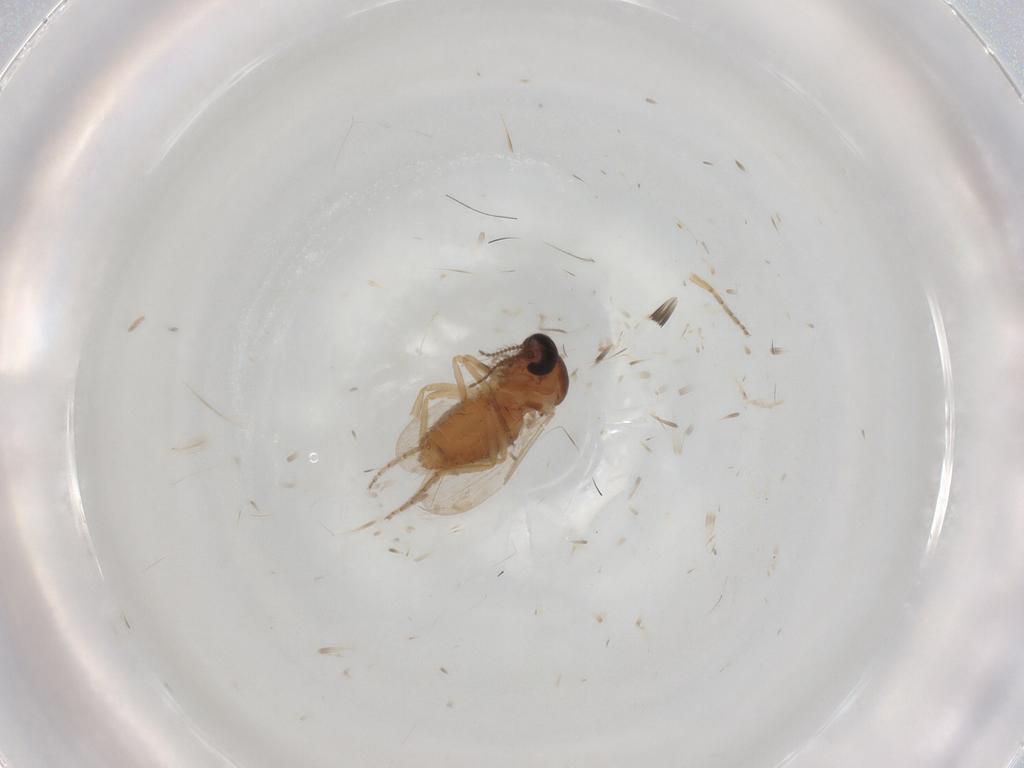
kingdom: Animalia
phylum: Arthropoda
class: Insecta
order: Diptera
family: Ceratopogonidae
